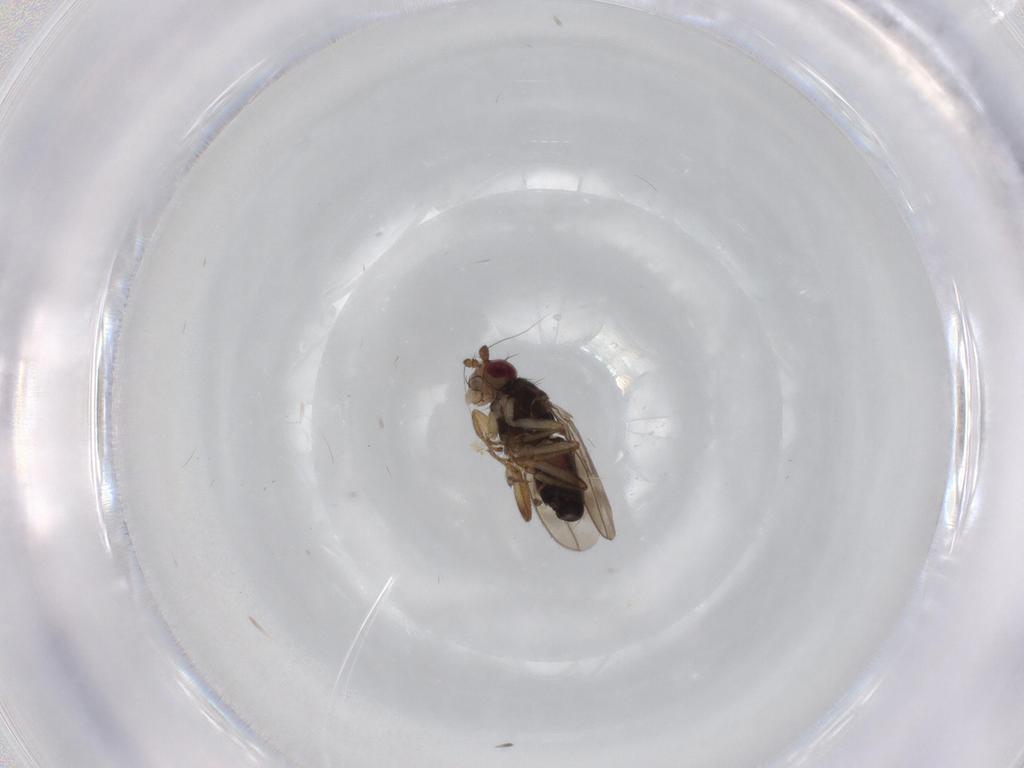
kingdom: Animalia
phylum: Arthropoda
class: Insecta
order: Diptera
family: Sphaeroceridae
